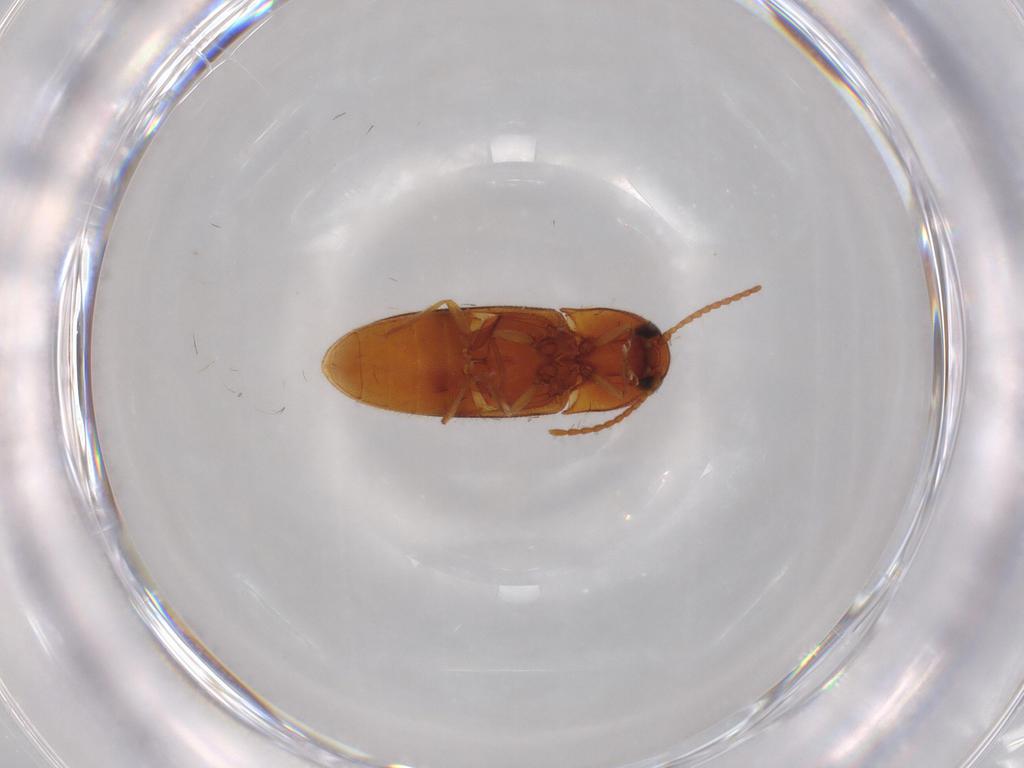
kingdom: Animalia
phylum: Arthropoda
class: Insecta
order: Coleoptera
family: Elateridae
